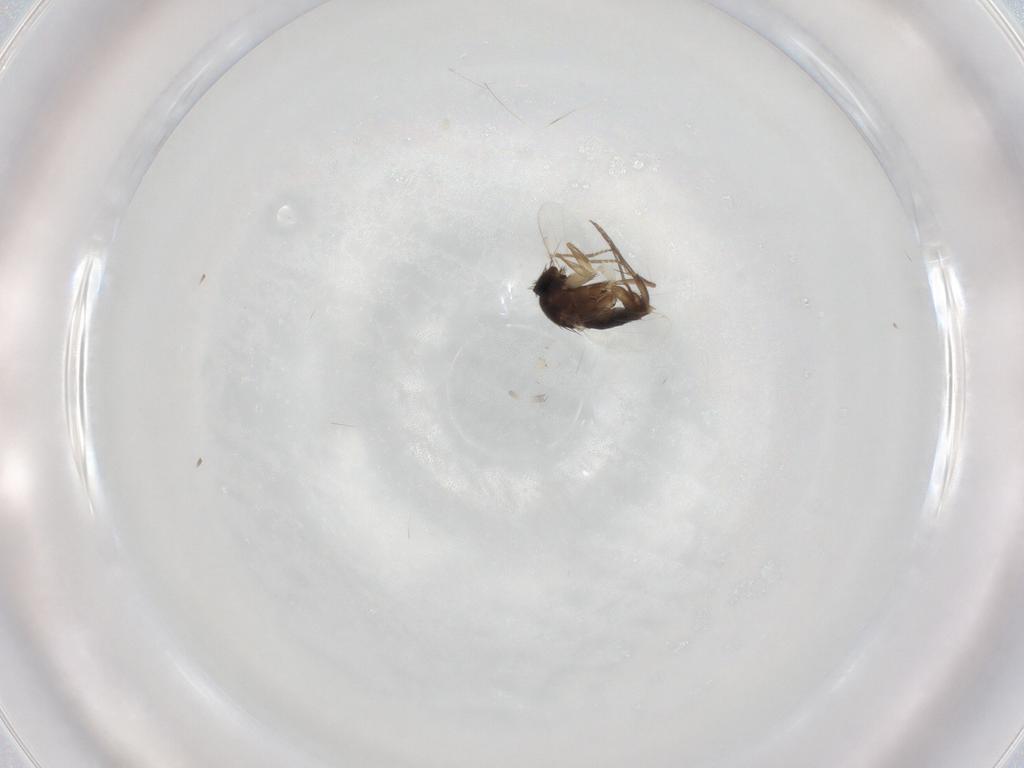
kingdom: Animalia
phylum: Arthropoda
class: Insecta
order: Diptera
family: Phoridae
